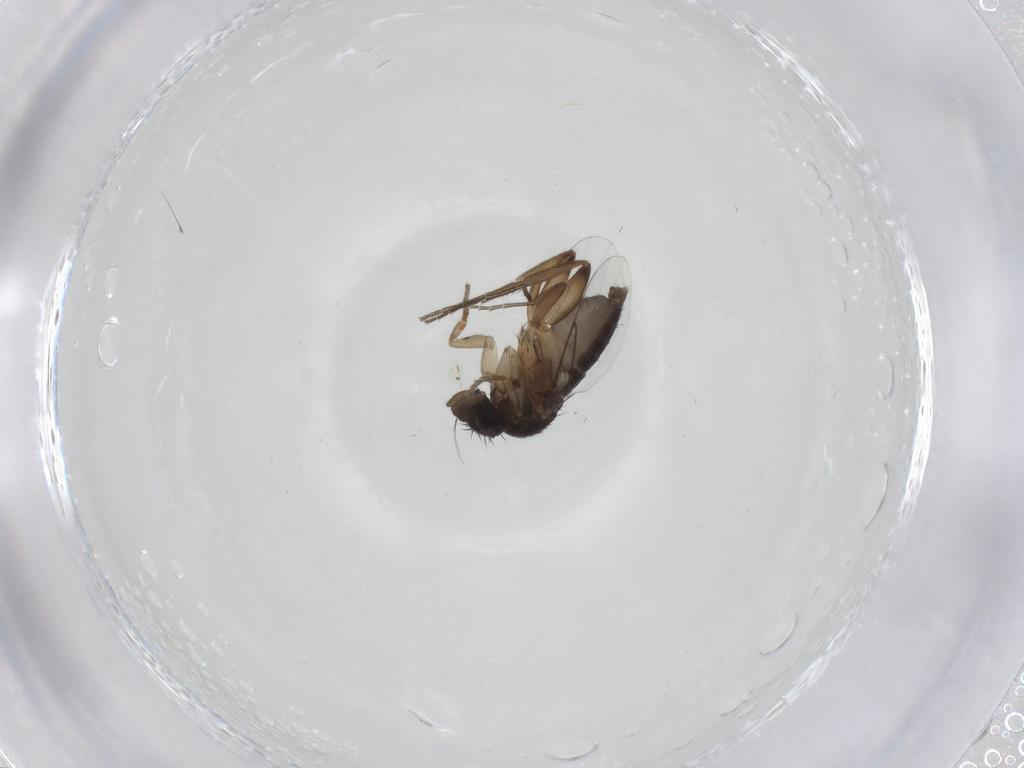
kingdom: Animalia
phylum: Arthropoda
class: Insecta
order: Diptera
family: Phoridae
